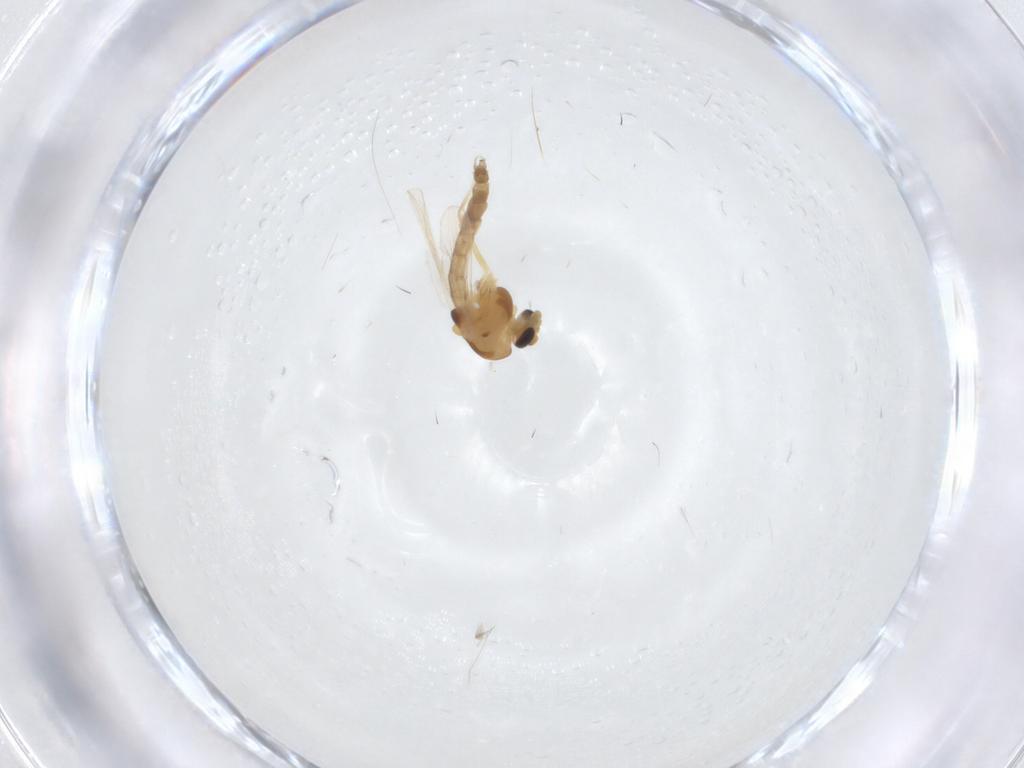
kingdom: Animalia
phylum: Arthropoda
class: Insecta
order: Diptera
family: Chironomidae
